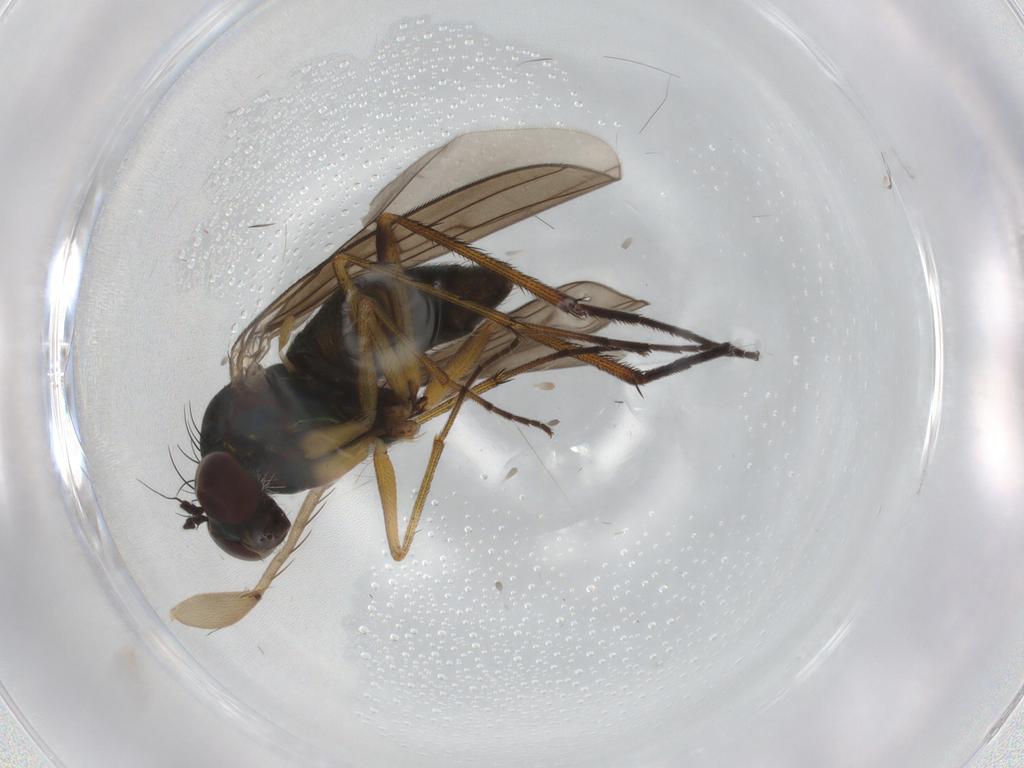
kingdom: Animalia
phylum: Arthropoda
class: Insecta
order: Diptera
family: Mycetophilidae
